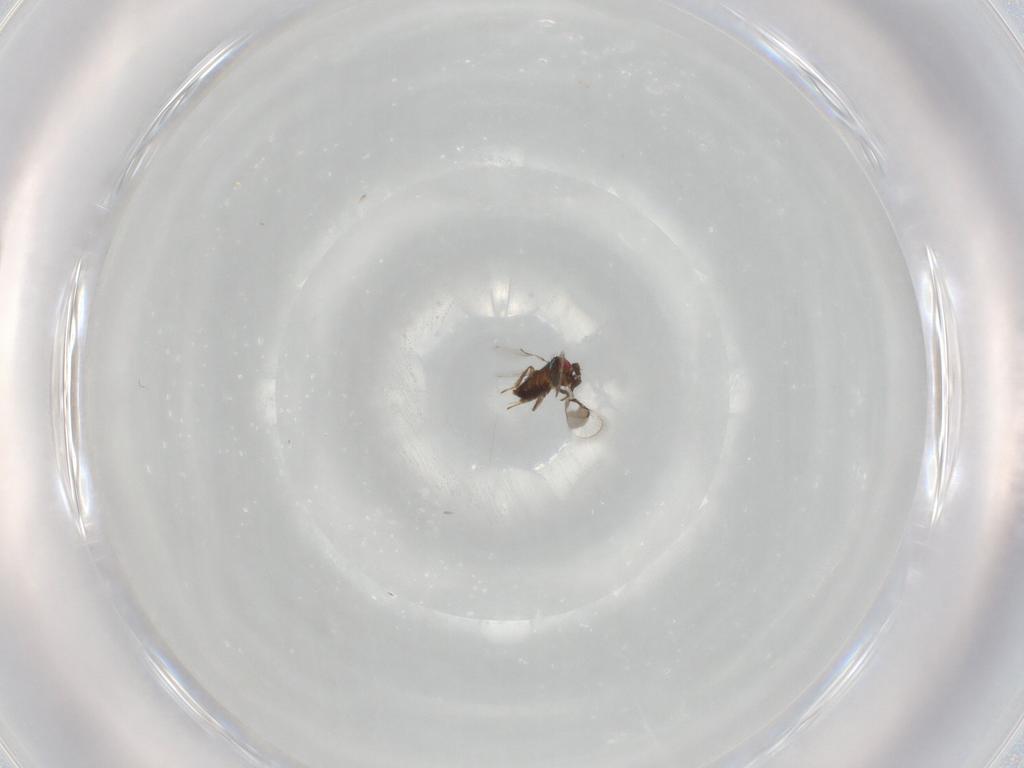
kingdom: Animalia
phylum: Arthropoda
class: Insecta
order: Hymenoptera
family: Trichogrammatidae
